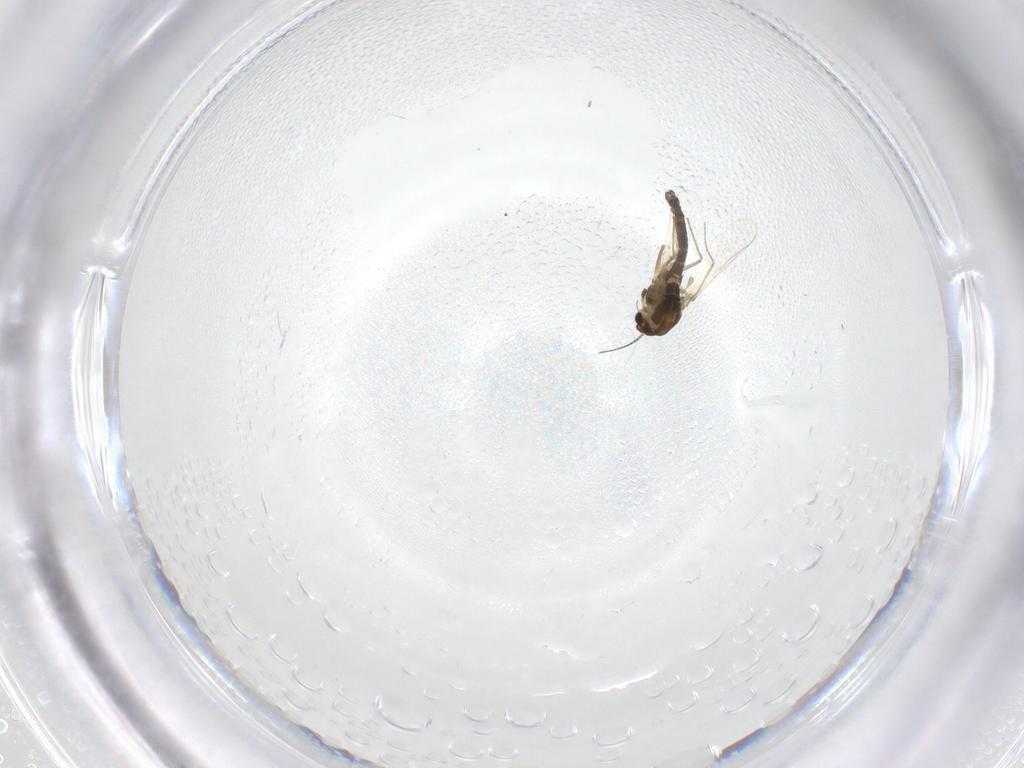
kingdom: Animalia
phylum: Arthropoda
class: Insecta
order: Diptera
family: Chironomidae
